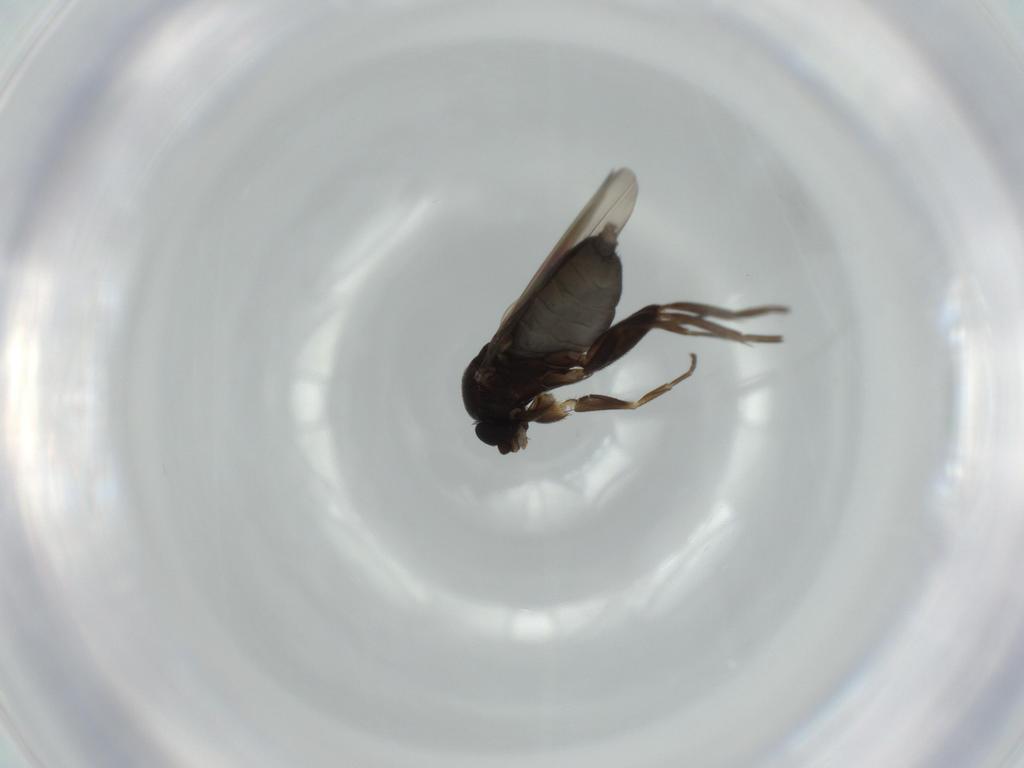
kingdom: Animalia
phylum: Arthropoda
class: Insecta
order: Diptera
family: Phoridae
